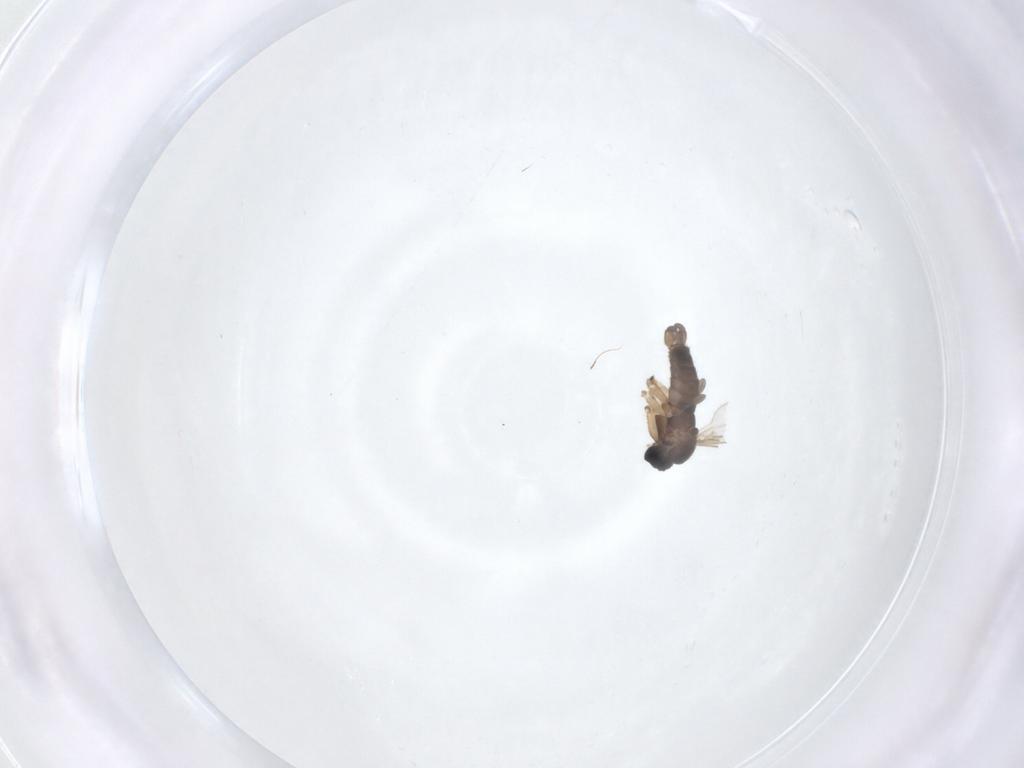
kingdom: Animalia
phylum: Arthropoda
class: Insecta
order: Diptera
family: Sciaridae
